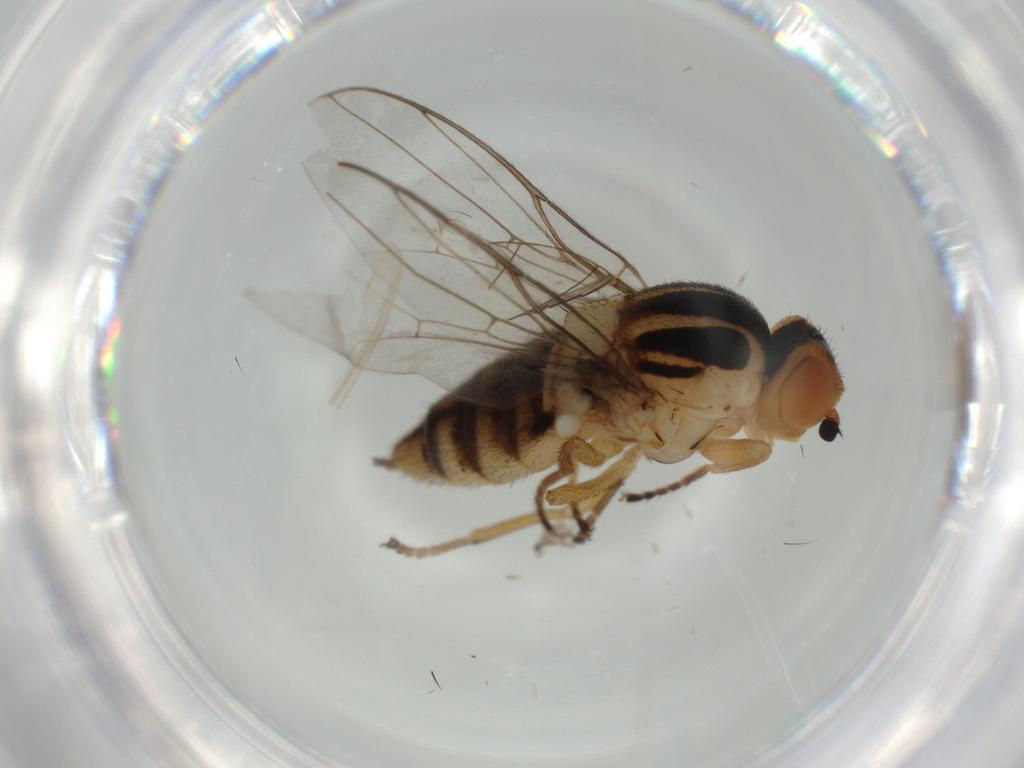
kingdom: Animalia
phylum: Arthropoda
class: Insecta
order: Diptera
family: Chloropidae
